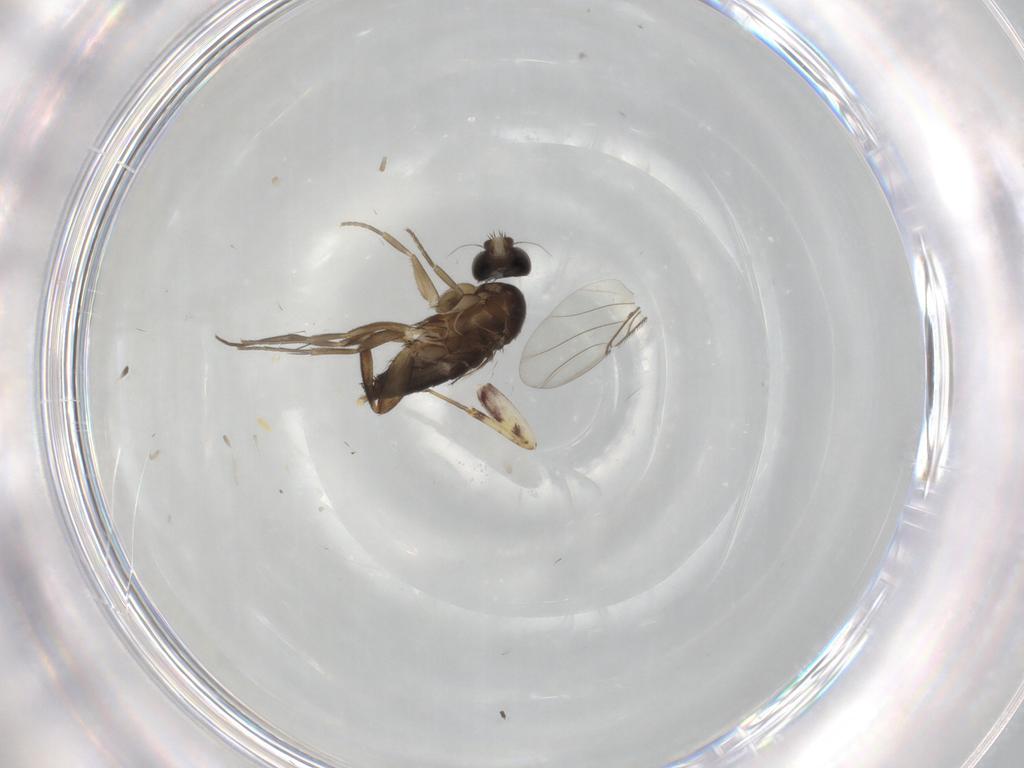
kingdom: Animalia
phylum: Arthropoda
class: Insecta
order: Diptera
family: Phoridae
